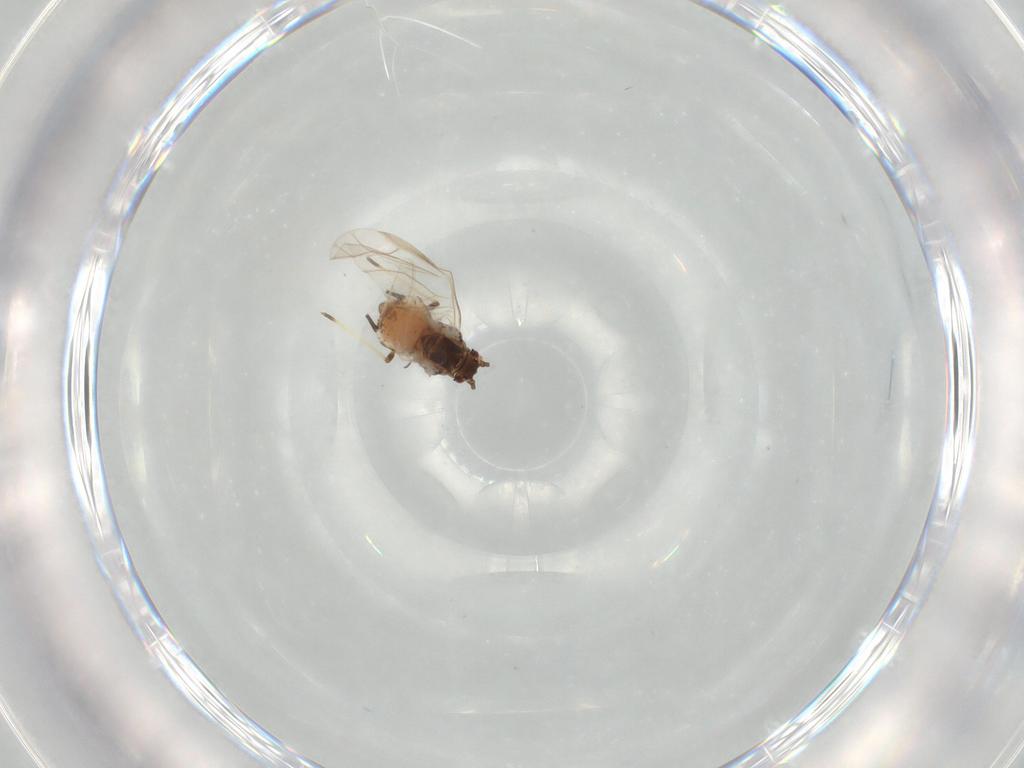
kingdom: Animalia
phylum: Arthropoda
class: Insecta
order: Hemiptera
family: Aphididae
